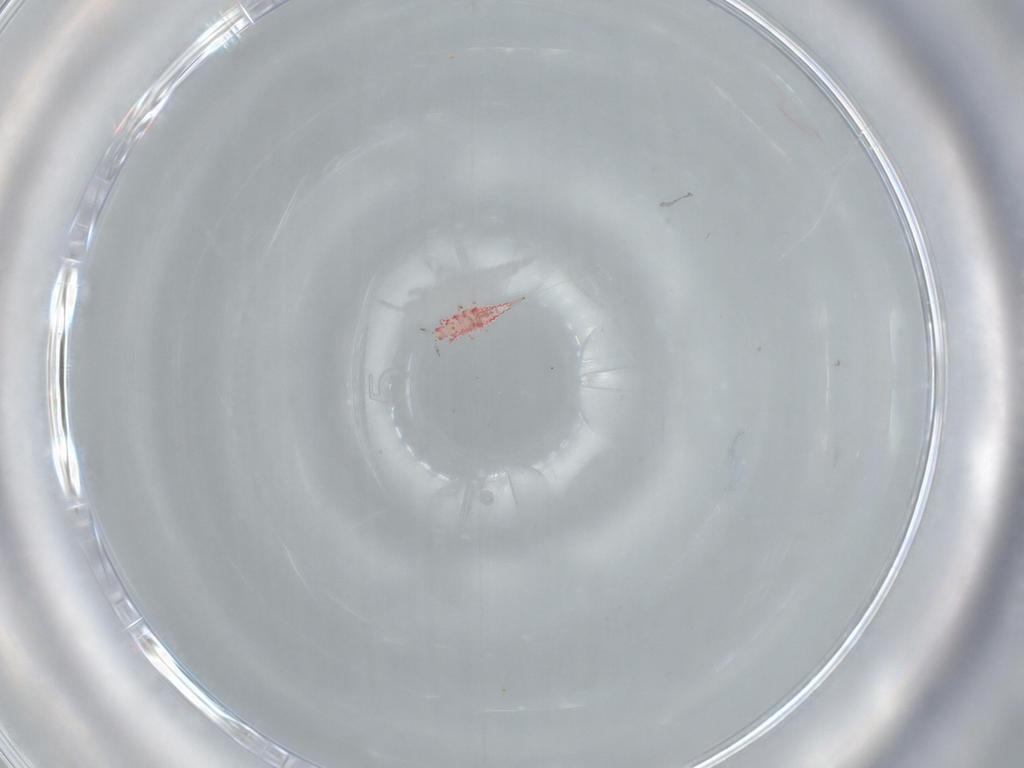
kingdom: Animalia
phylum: Arthropoda
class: Insecta
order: Thysanoptera
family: Phlaeothripidae
